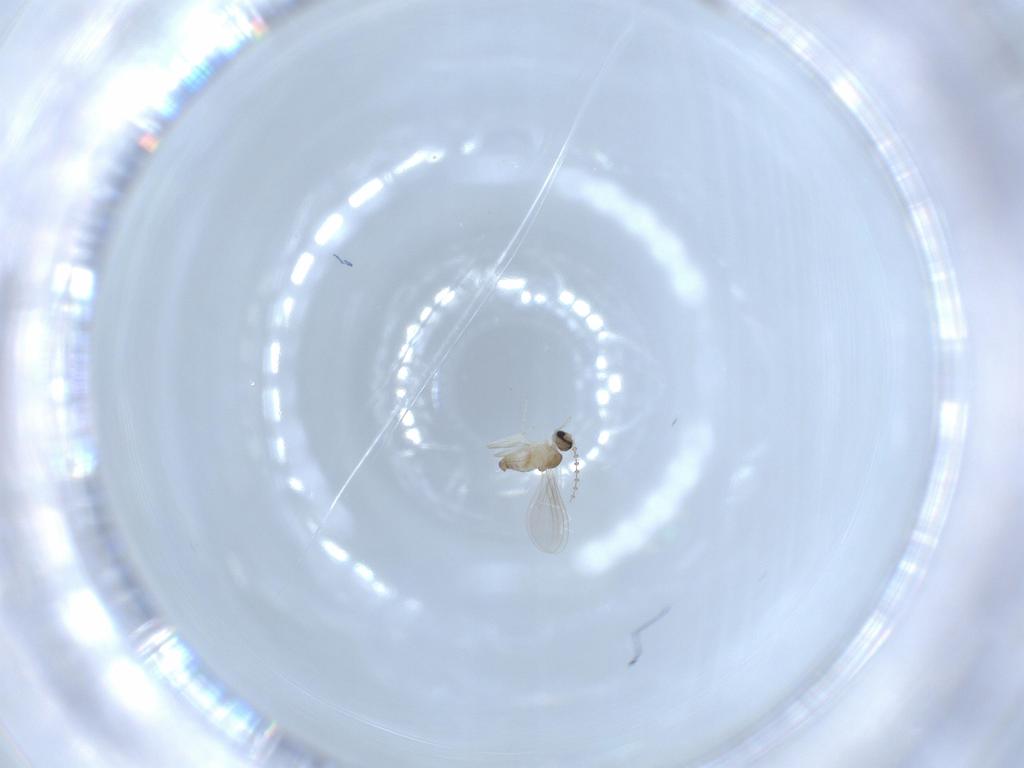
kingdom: Animalia
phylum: Arthropoda
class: Insecta
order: Diptera
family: Cecidomyiidae
